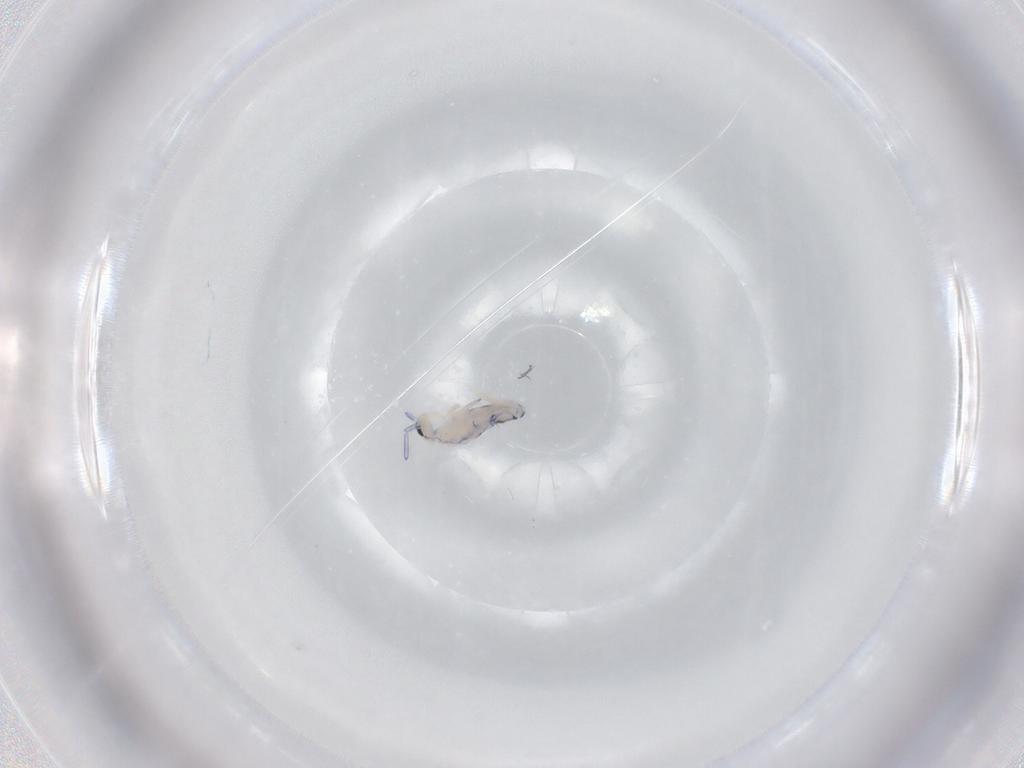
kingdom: Animalia
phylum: Arthropoda
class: Collembola
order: Entomobryomorpha
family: Entomobryidae
